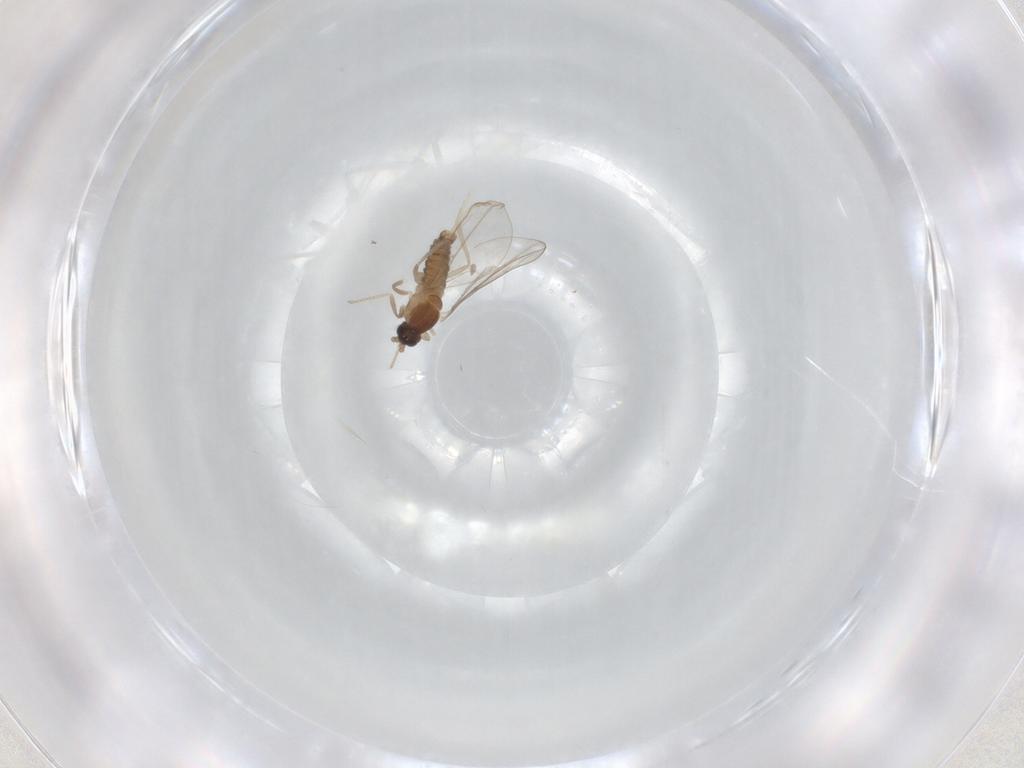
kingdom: Animalia
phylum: Arthropoda
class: Insecta
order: Diptera
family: Cecidomyiidae
